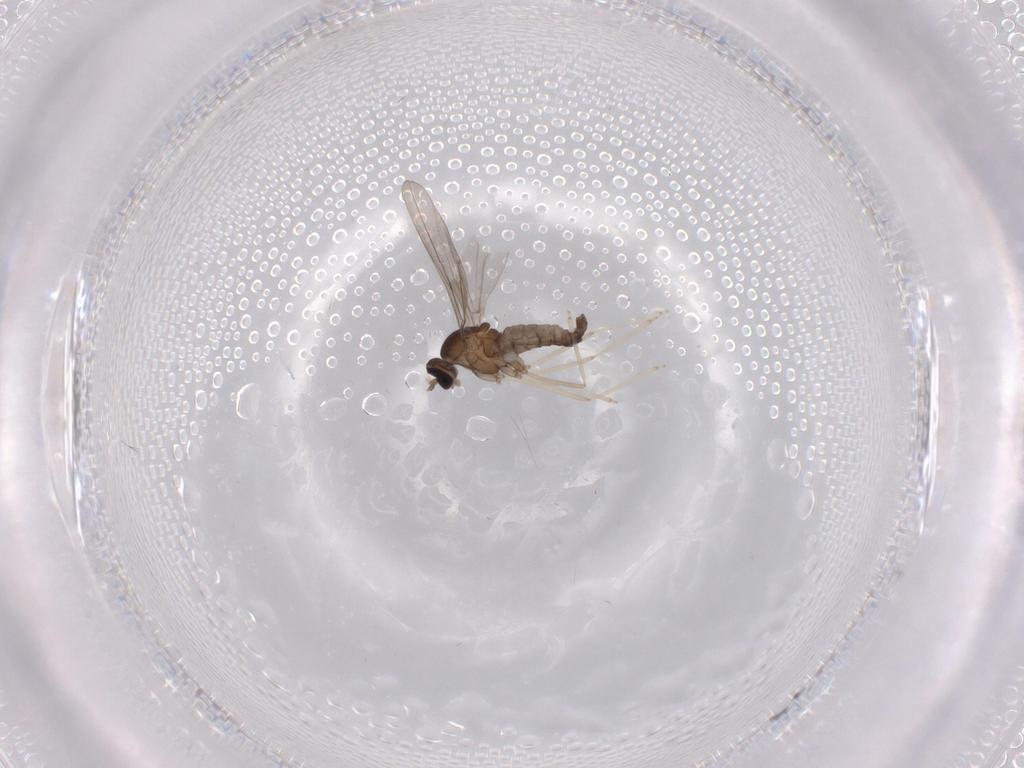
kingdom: Animalia
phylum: Arthropoda
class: Insecta
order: Diptera
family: Cecidomyiidae
